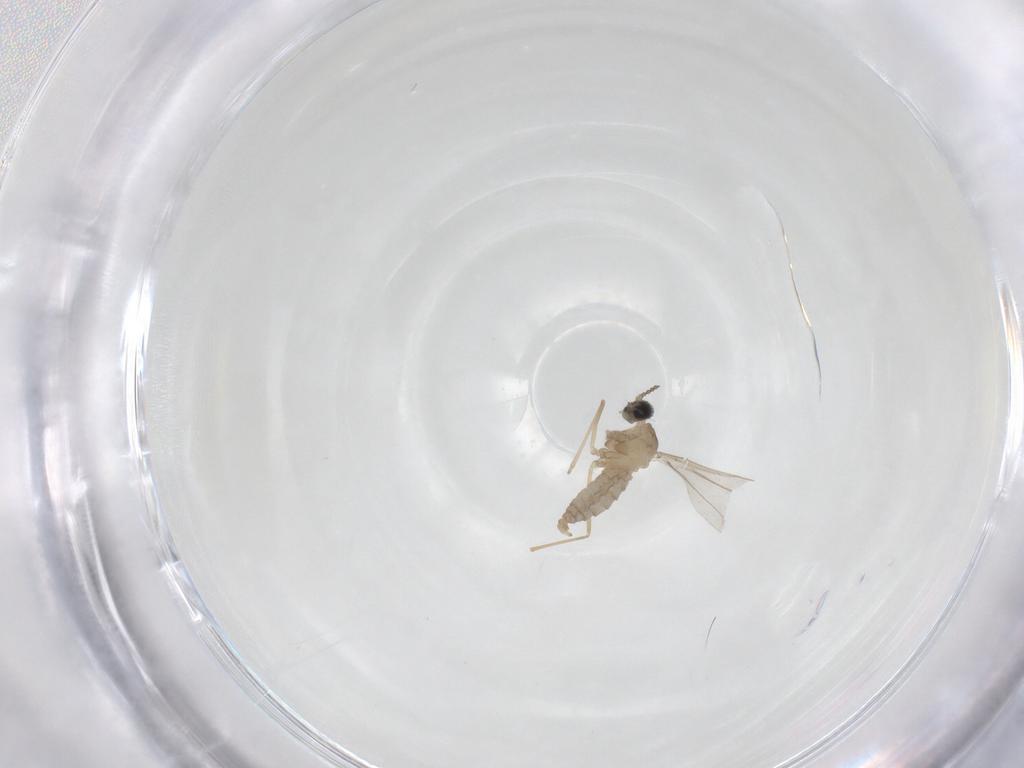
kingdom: Animalia
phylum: Arthropoda
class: Insecta
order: Diptera
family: Cecidomyiidae
